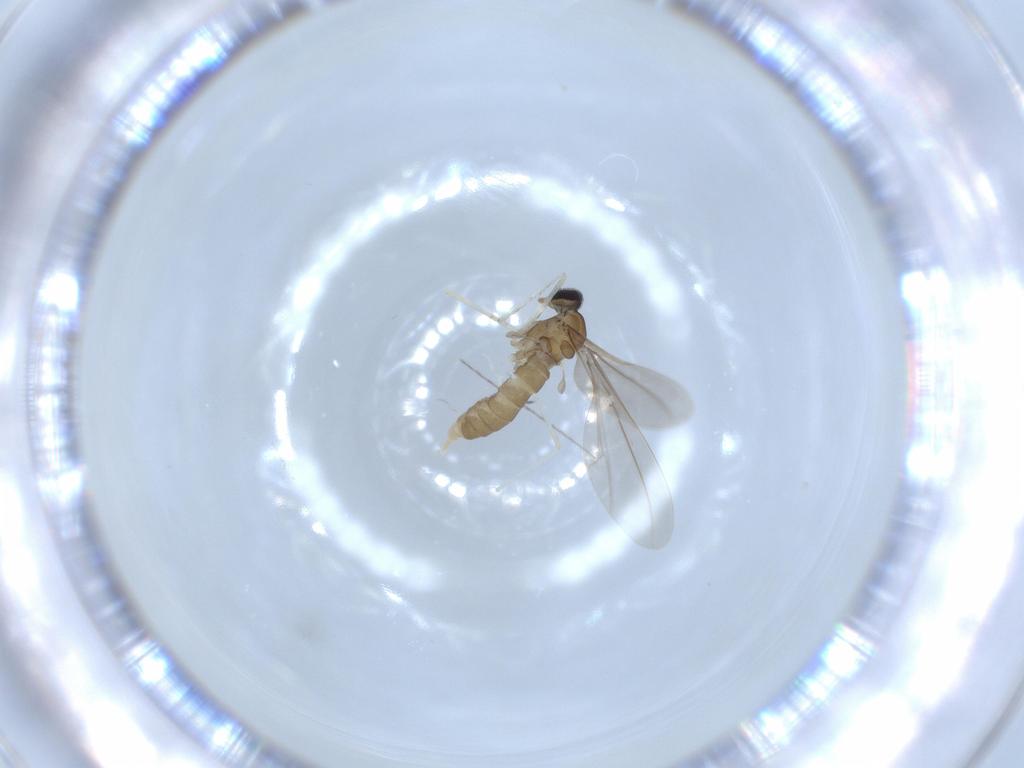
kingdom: Animalia
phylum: Arthropoda
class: Insecta
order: Diptera
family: Cecidomyiidae
